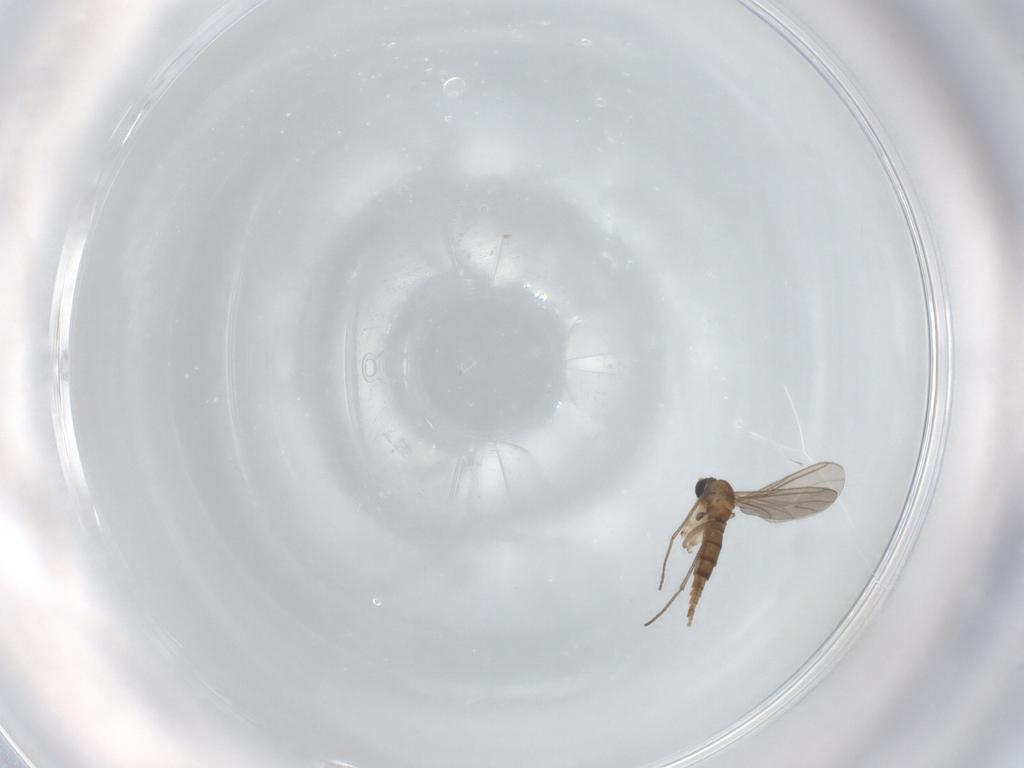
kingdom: Animalia
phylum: Arthropoda
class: Insecta
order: Diptera
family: Sciaridae
